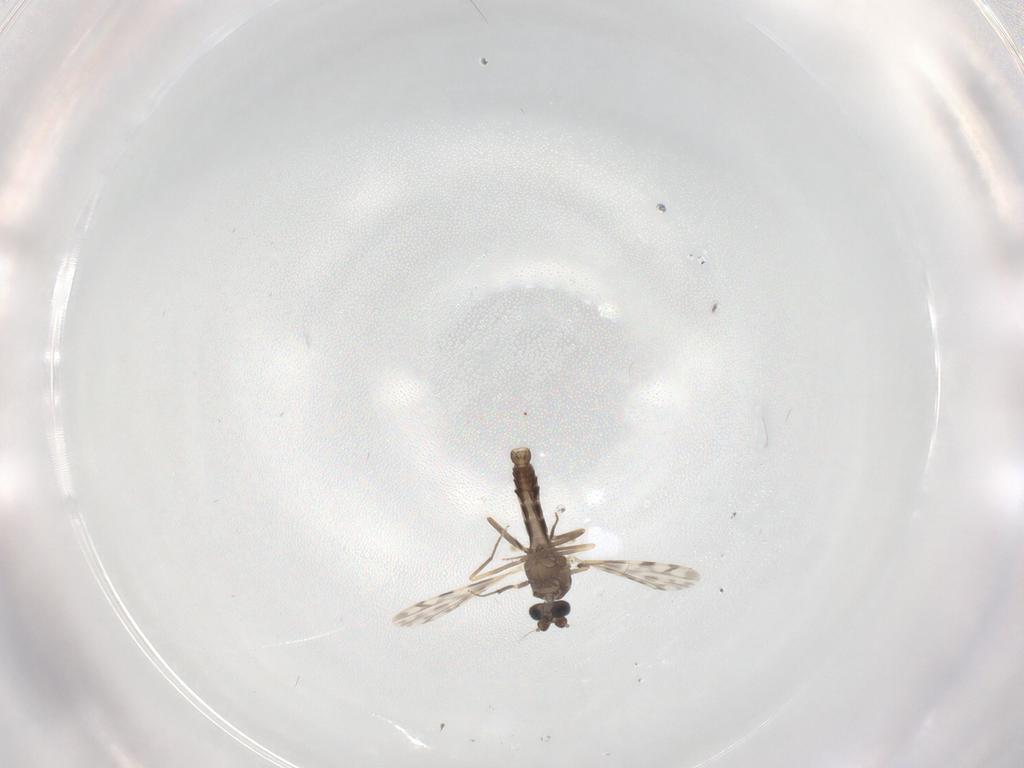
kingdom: Animalia
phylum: Arthropoda
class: Insecta
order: Diptera
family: Ceratopogonidae
